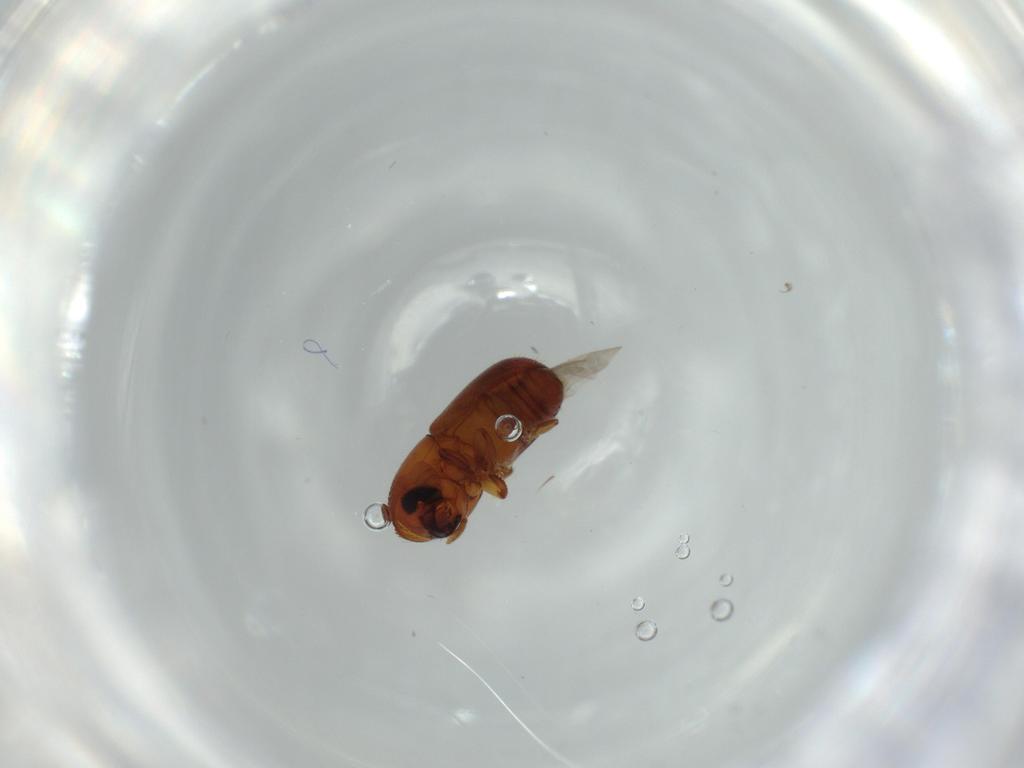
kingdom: Animalia
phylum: Arthropoda
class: Insecta
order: Coleoptera
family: Curculionidae
